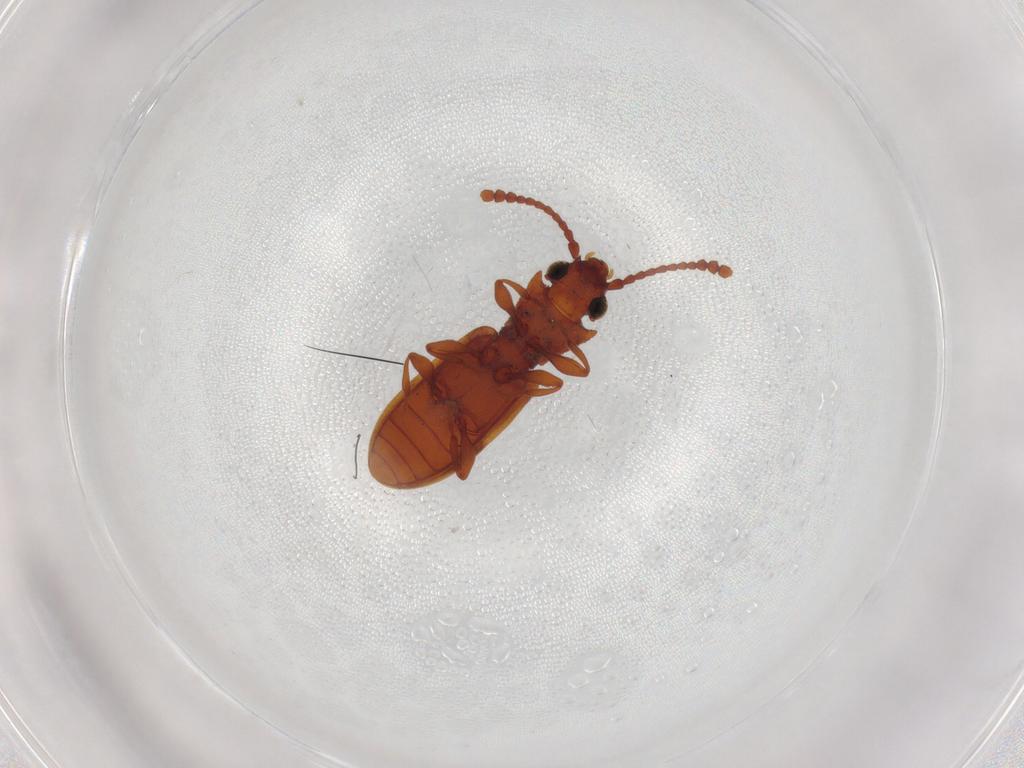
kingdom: Animalia
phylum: Arthropoda
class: Insecta
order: Coleoptera
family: Silvanidae
